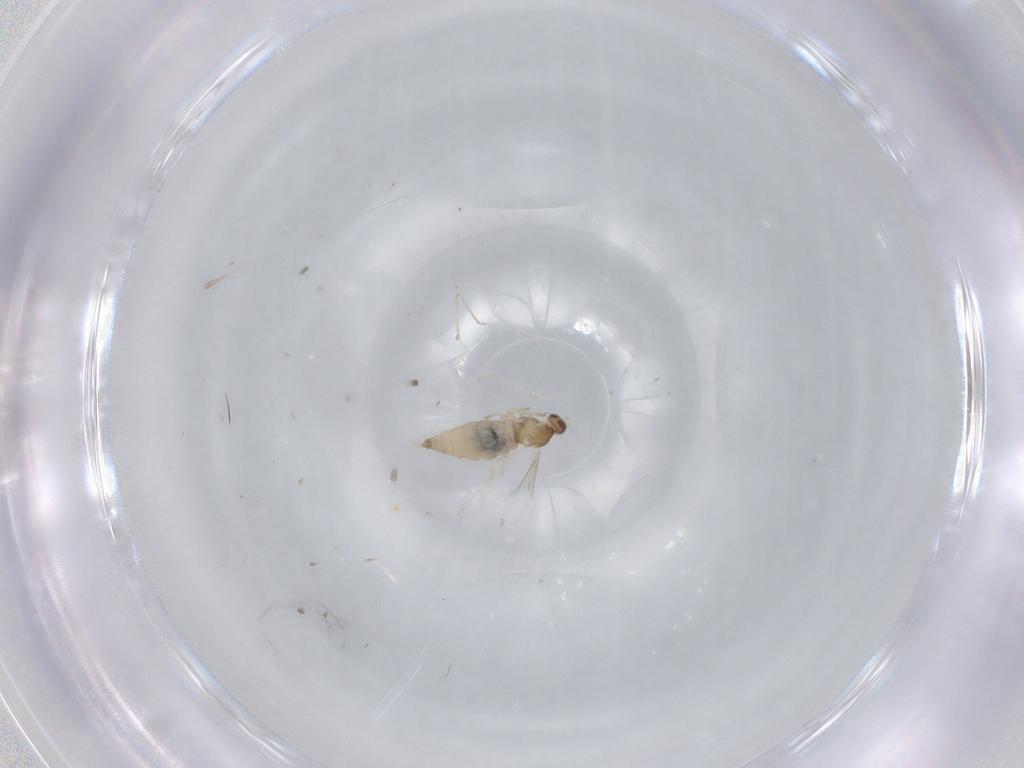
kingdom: Animalia
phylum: Arthropoda
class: Insecta
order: Diptera
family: Cecidomyiidae
